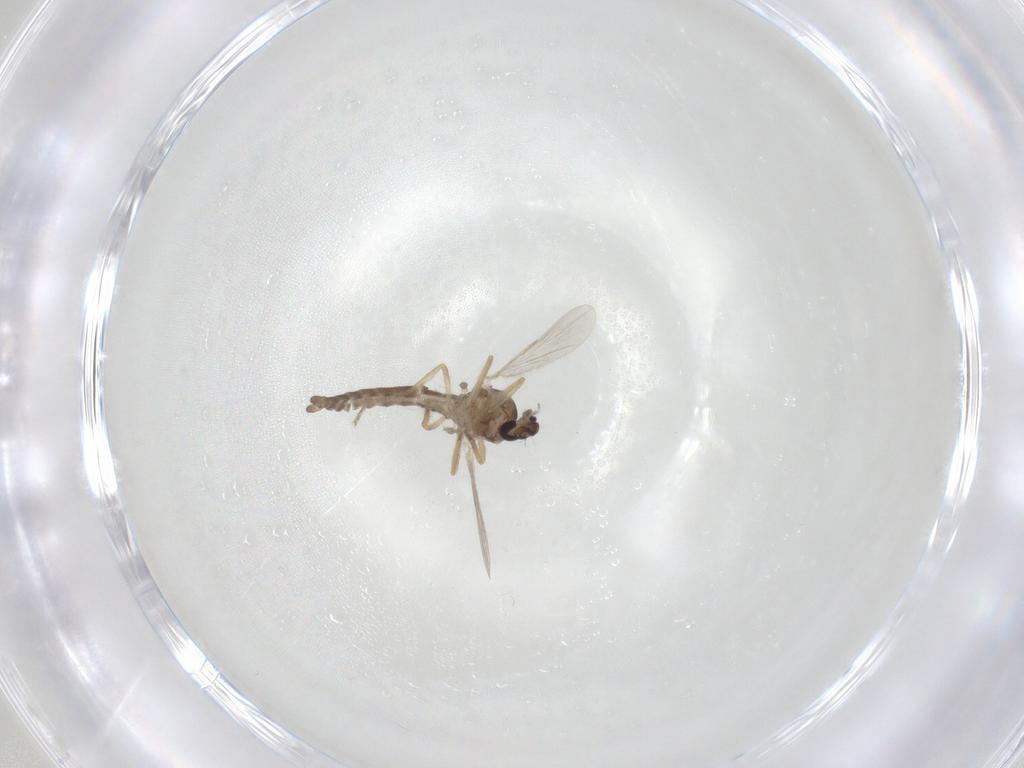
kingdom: Animalia
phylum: Arthropoda
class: Insecta
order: Diptera
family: Ceratopogonidae
